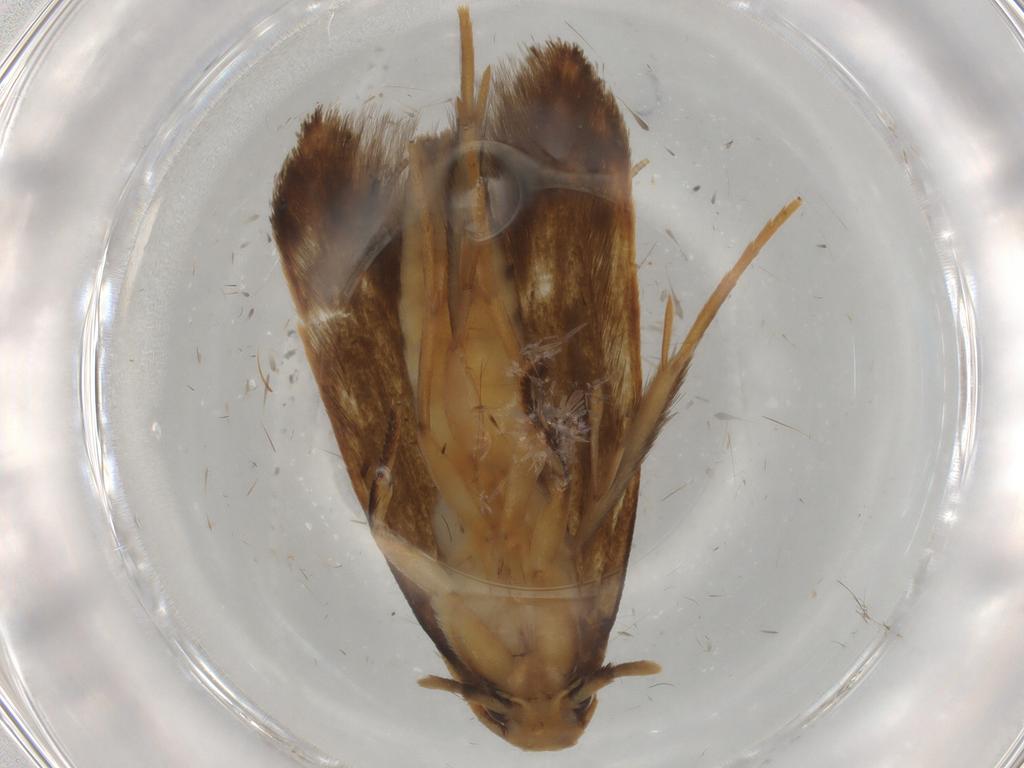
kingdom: Animalia
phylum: Arthropoda
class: Insecta
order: Lepidoptera
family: Tineidae
